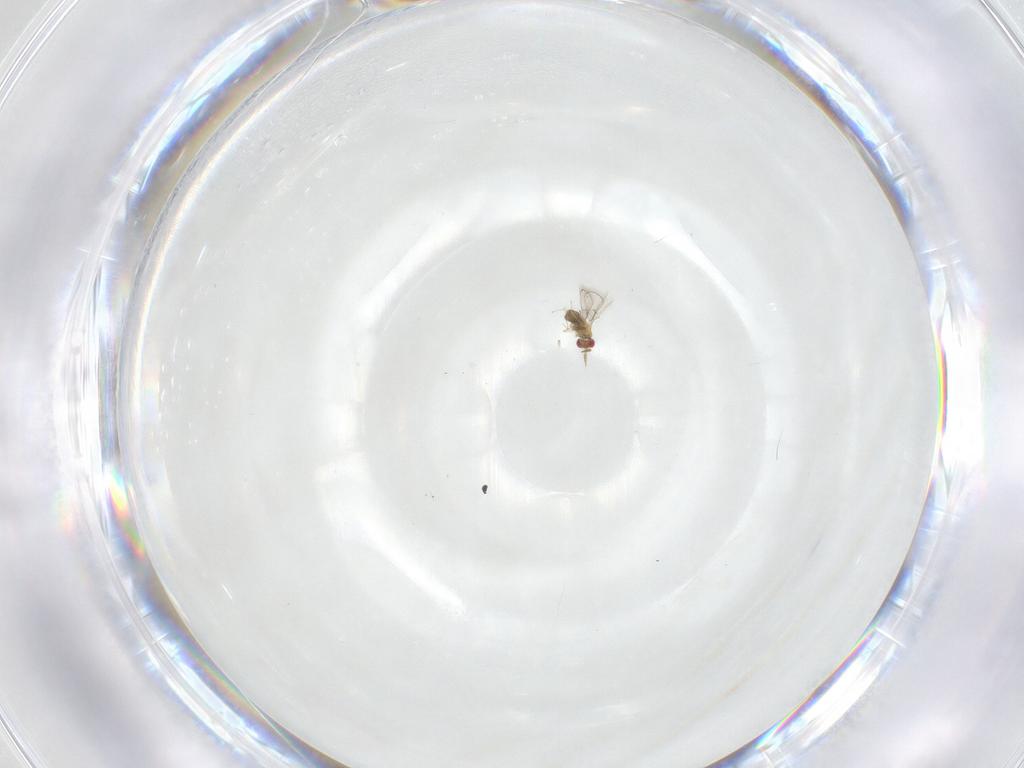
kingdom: Animalia
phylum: Arthropoda
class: Insecta
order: Hymenoptera
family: Trichogrammatidae
